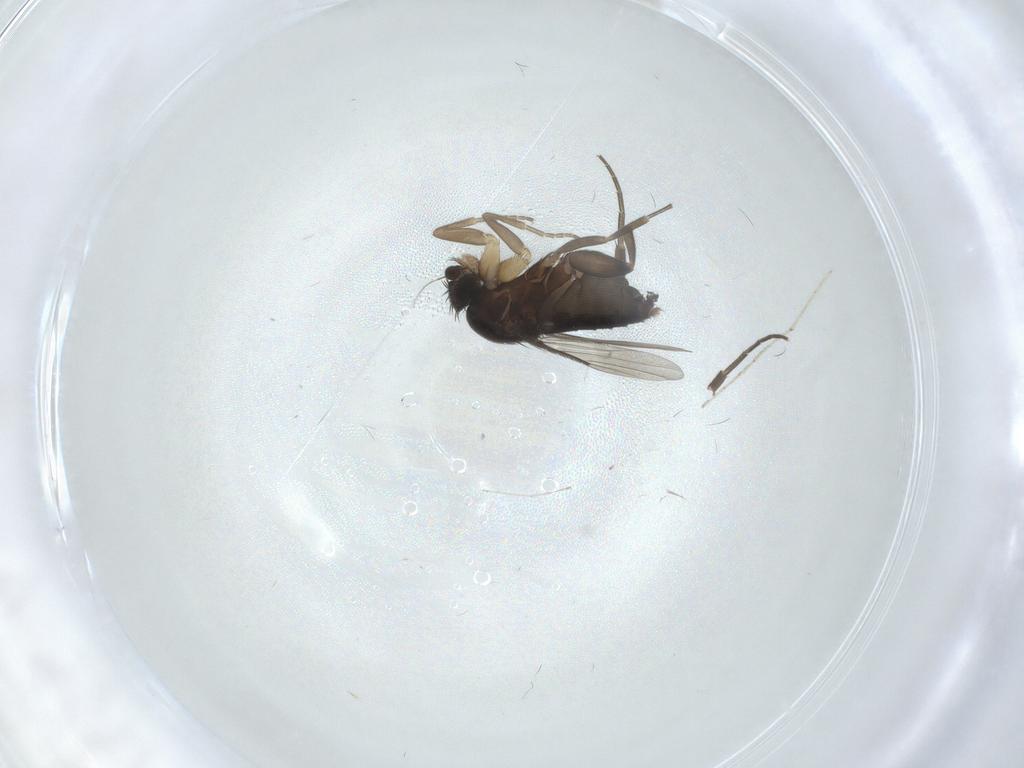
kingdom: Animalia
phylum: Arthropoda
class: Insecta
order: Diptera
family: Phoridae
